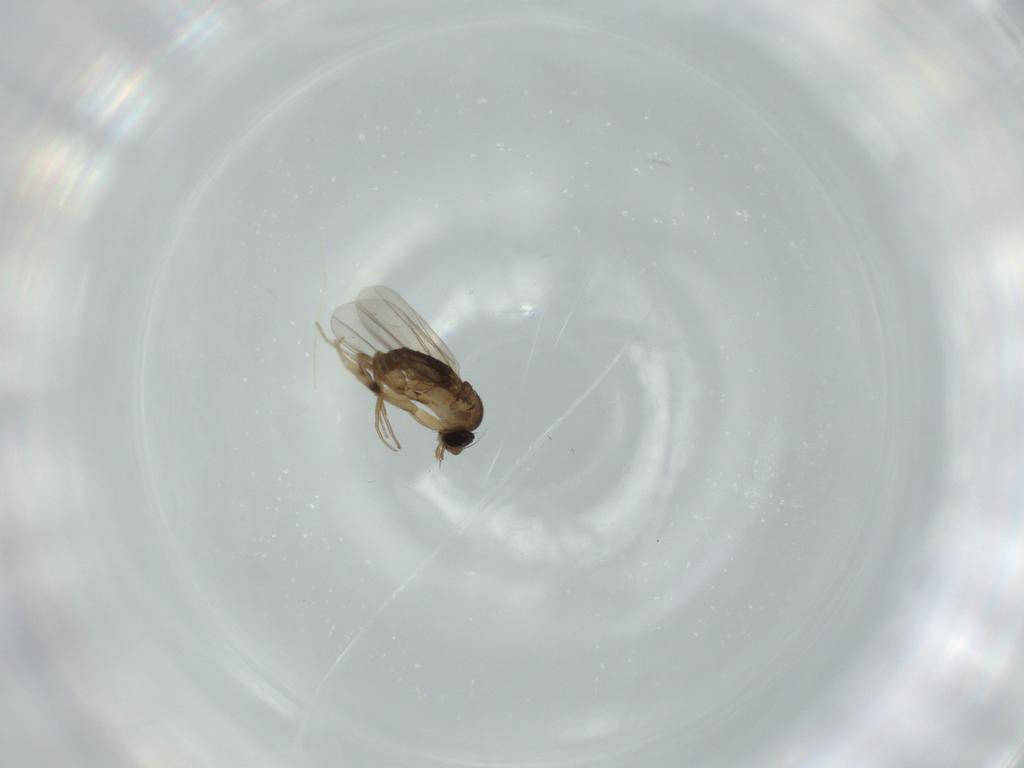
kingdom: Animalia
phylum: Arthropoda
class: Insecta
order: Diptera
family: Phoridae
